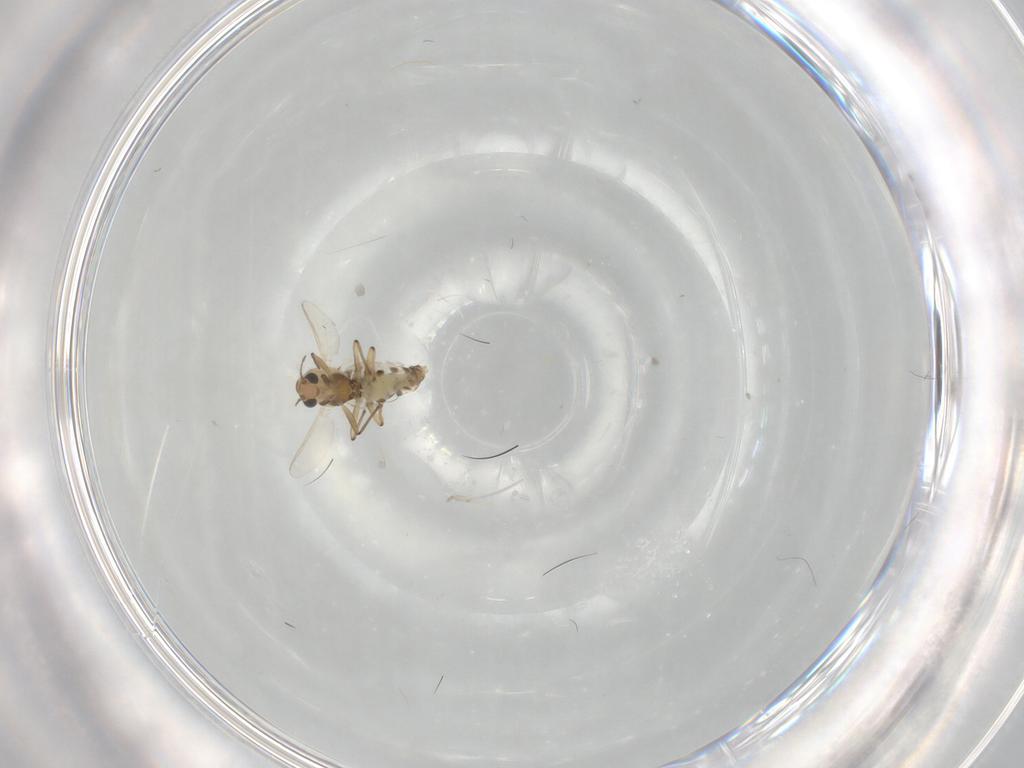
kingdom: Animalia
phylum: Arthropoda
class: Insecta
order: Diptera
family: Chironomidae
